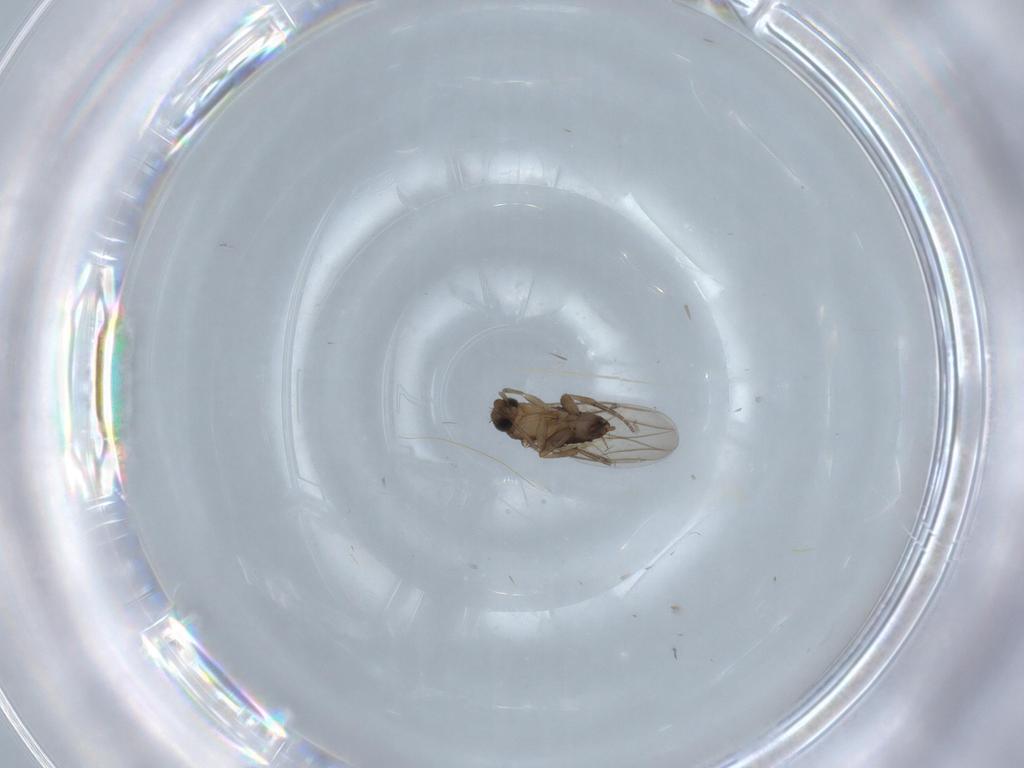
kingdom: Animalia
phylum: Arthropoda
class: Insecta
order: Diptera
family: Phoridae
